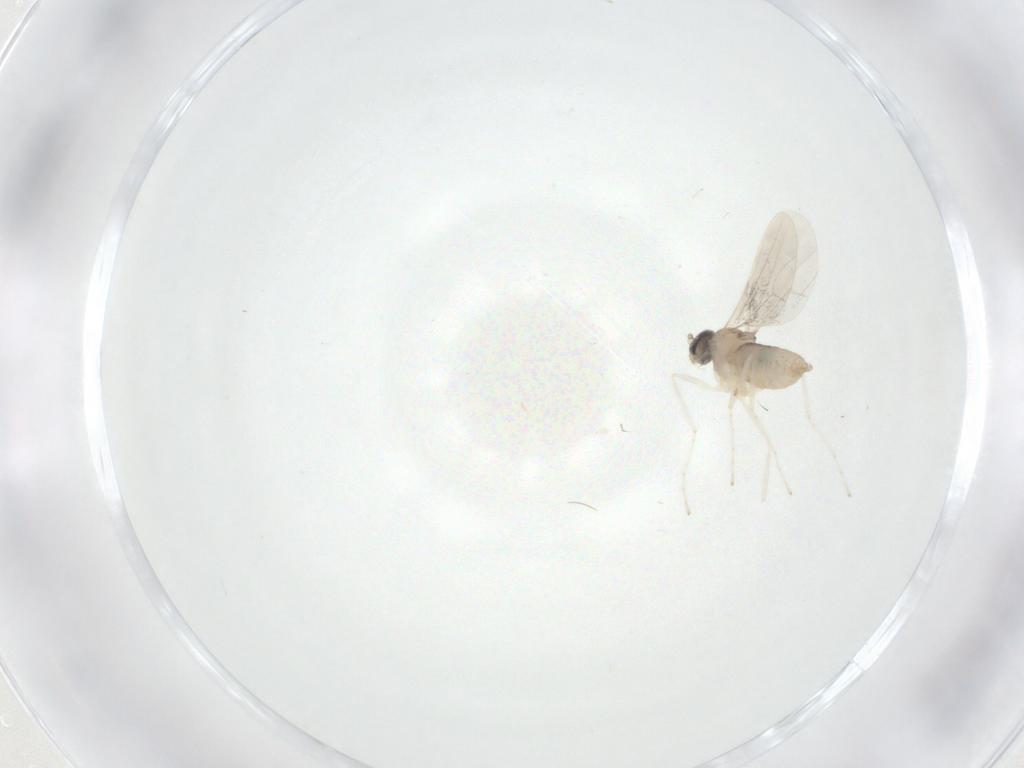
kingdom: Animalia
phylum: Arthropoda
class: Insecta
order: Diptera
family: Cecidomyiidae
